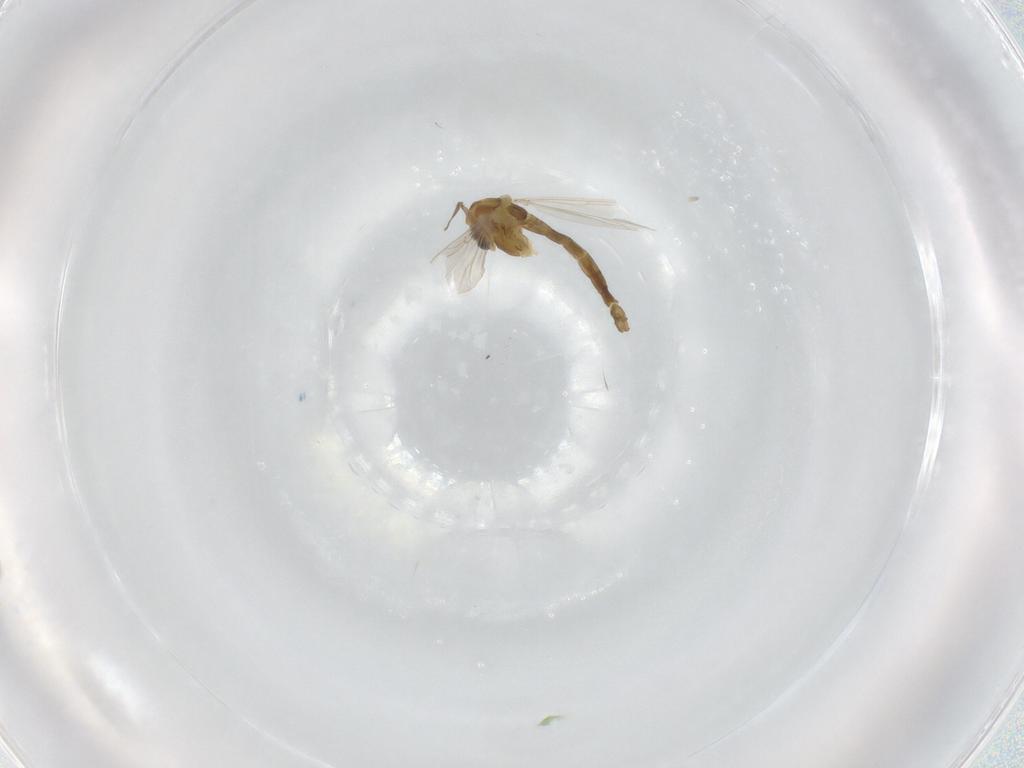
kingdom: Animalia
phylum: Arthropoda
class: Insecta
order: Diptera
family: Chironomidae
